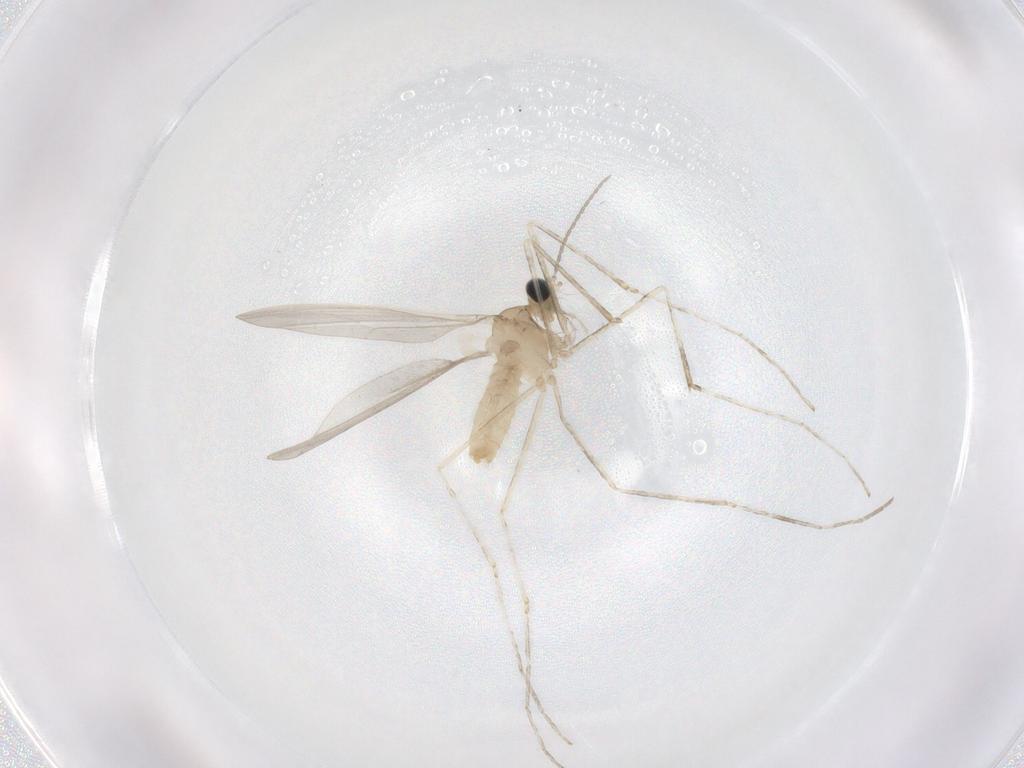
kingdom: Animalia
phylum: Arthropoda
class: Insecta
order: Diptera
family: Cecidomyiidae
